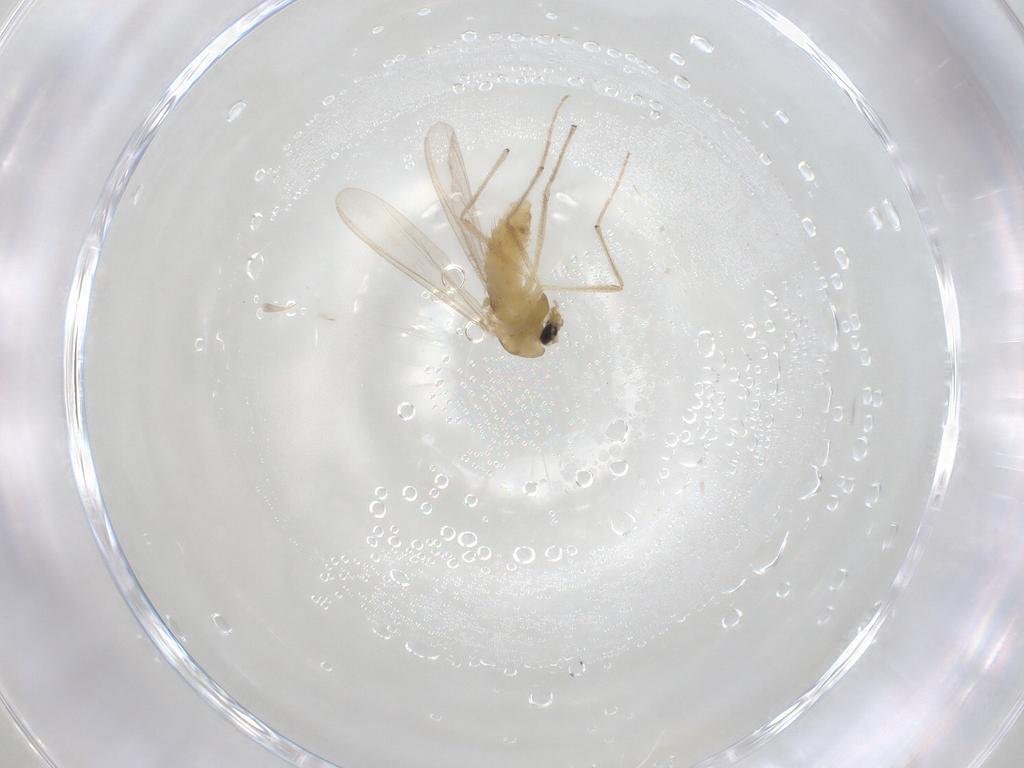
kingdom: Animalia
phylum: Arthropoda
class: Insecta
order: Diptera
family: Chironomidae
